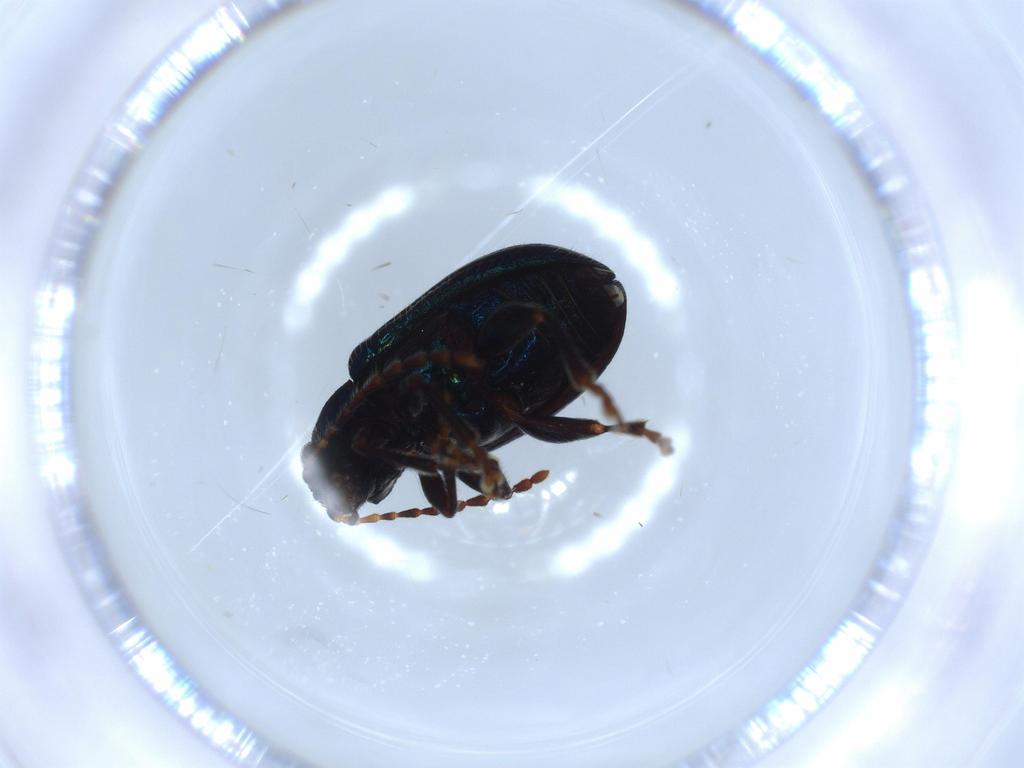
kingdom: Animalia
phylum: Arthropoda
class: Insecta
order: Coleoptera
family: Chrysomelidae
